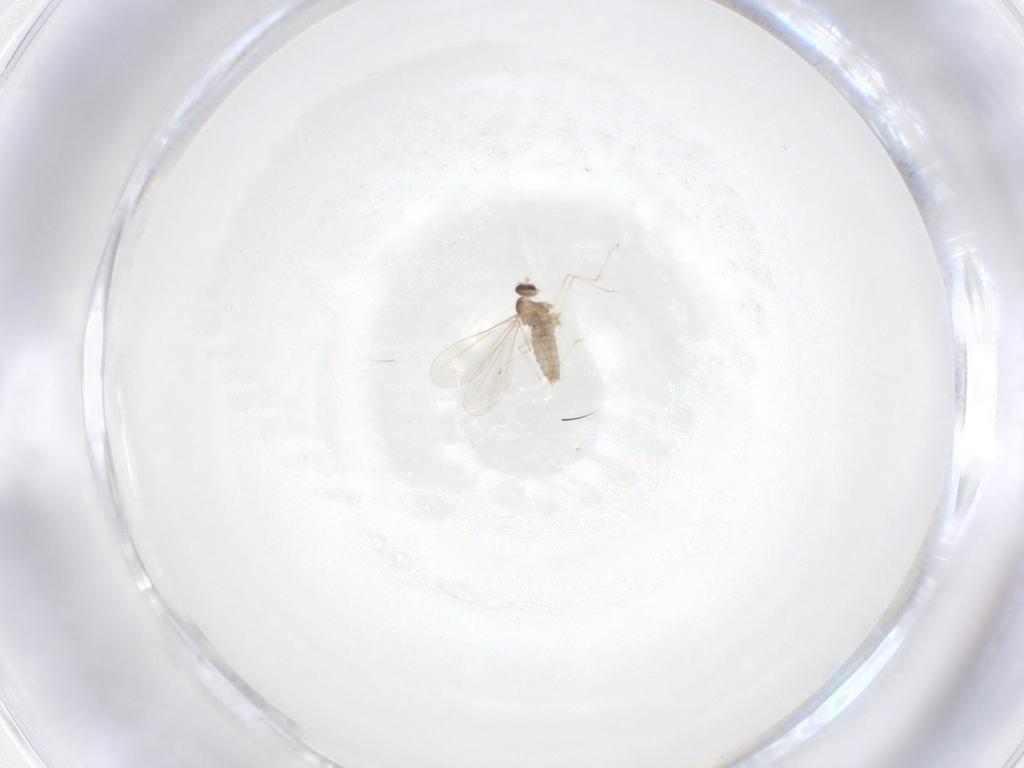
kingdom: Animalia
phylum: Arthropoda
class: Insecta
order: Diptera
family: Cecidomyiidae
